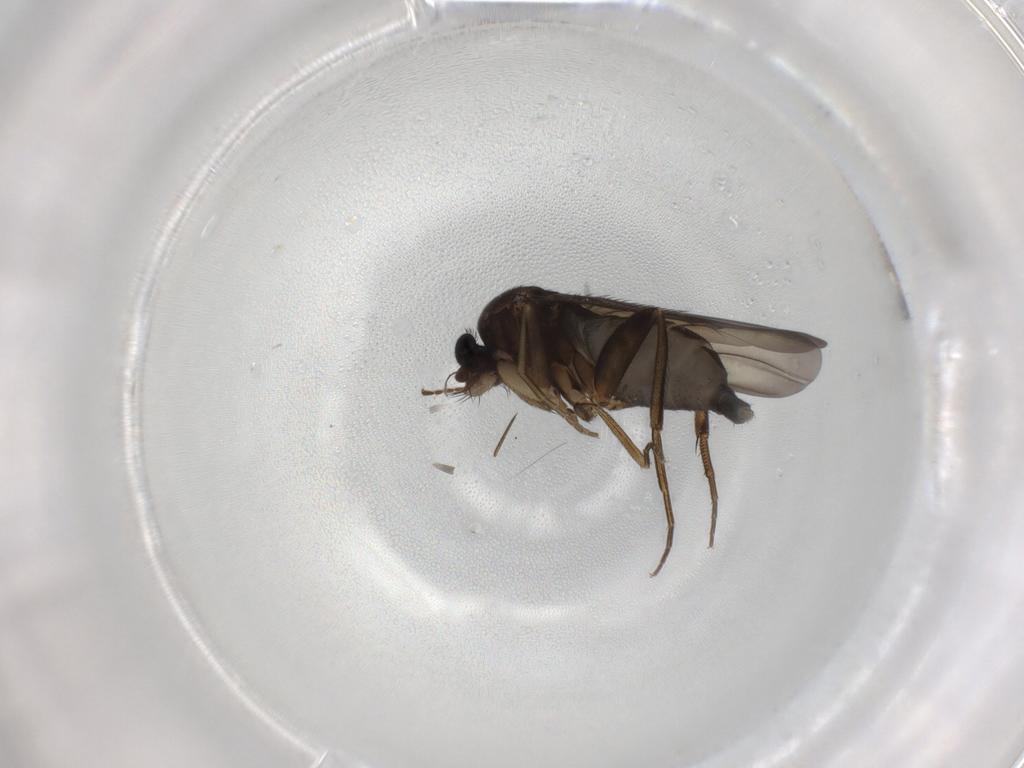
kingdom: Animalia
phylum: Arthropoda
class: Insecta
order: Diptera
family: Phoridae
